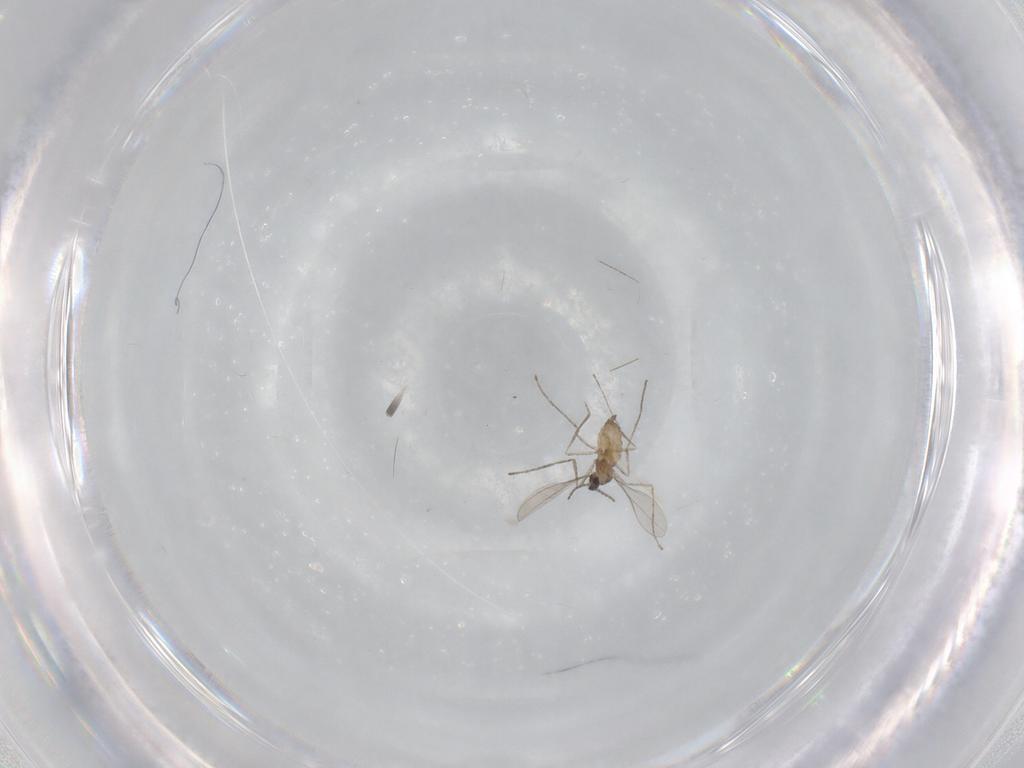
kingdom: Animalia
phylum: Arthropoda
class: Insecta
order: Diptera
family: Cecidomyiidae
